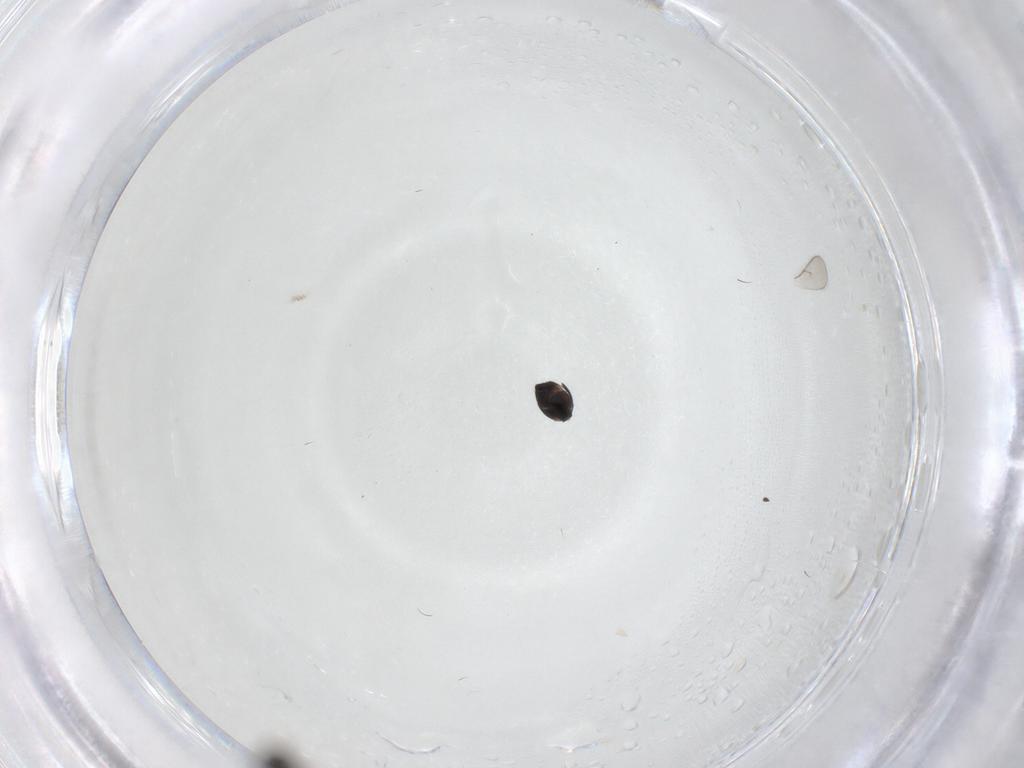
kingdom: Animalia
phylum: Arthropoda
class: Insecta
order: Hymenoptera
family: Scelionidae
